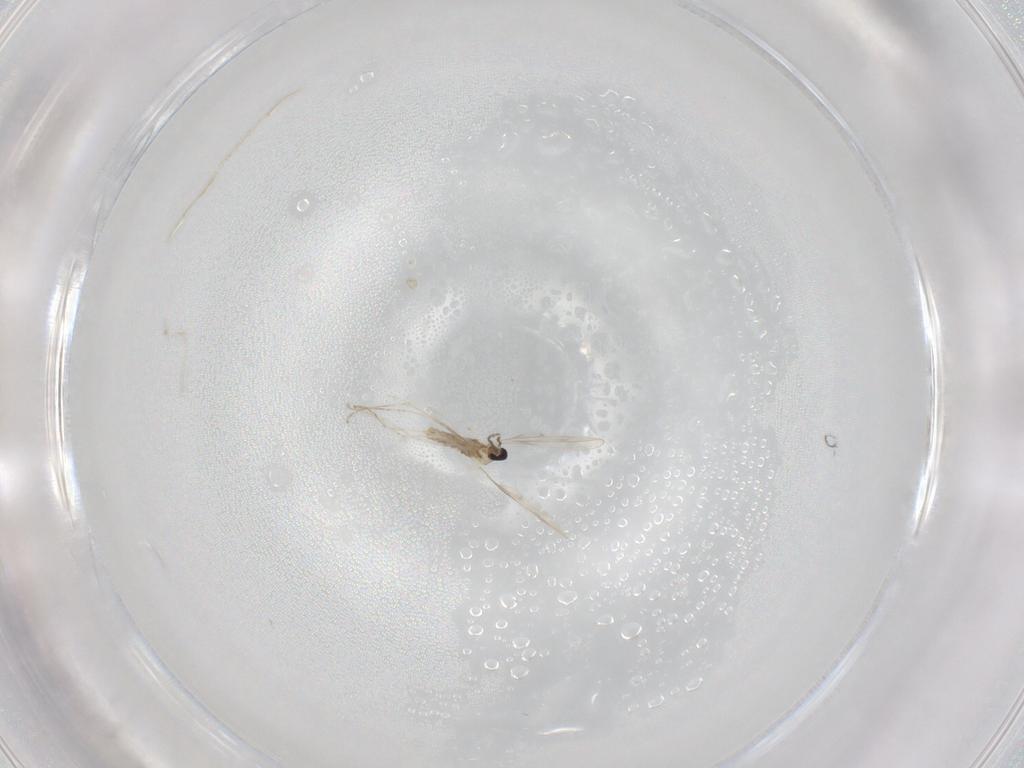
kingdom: Animalia
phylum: Arthropoda
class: Insecta
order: Diptera
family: Cecidomyiidae
